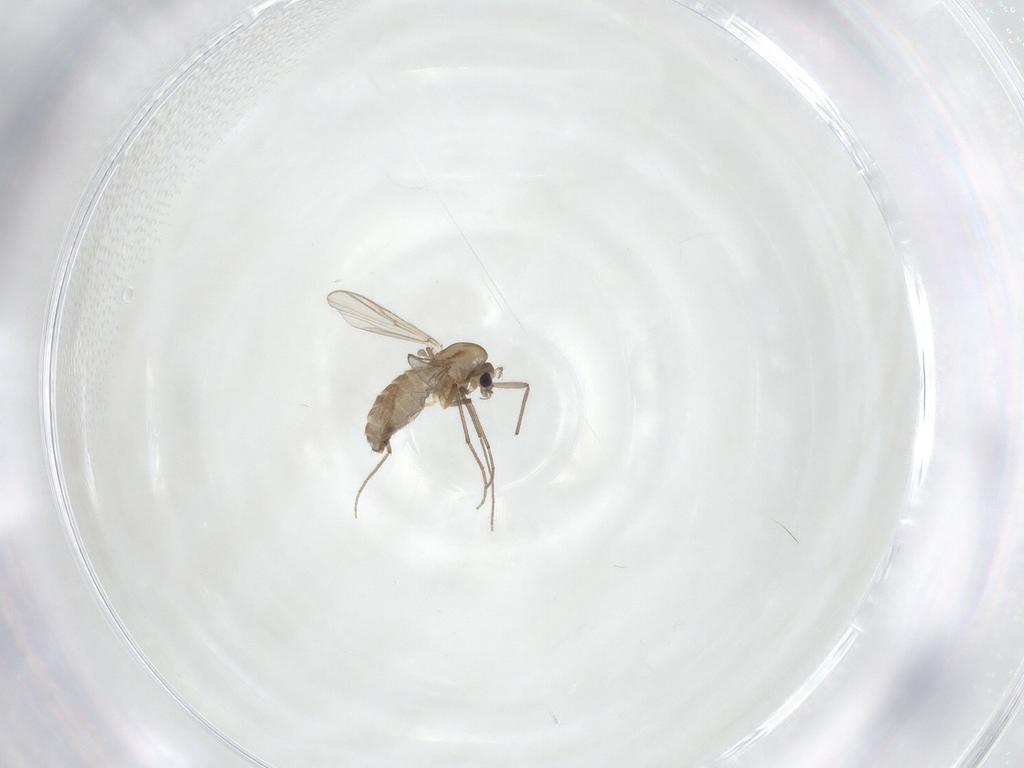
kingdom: Animalia
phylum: Arthropoda
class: Insecta
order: Diptera
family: Chironomidae
